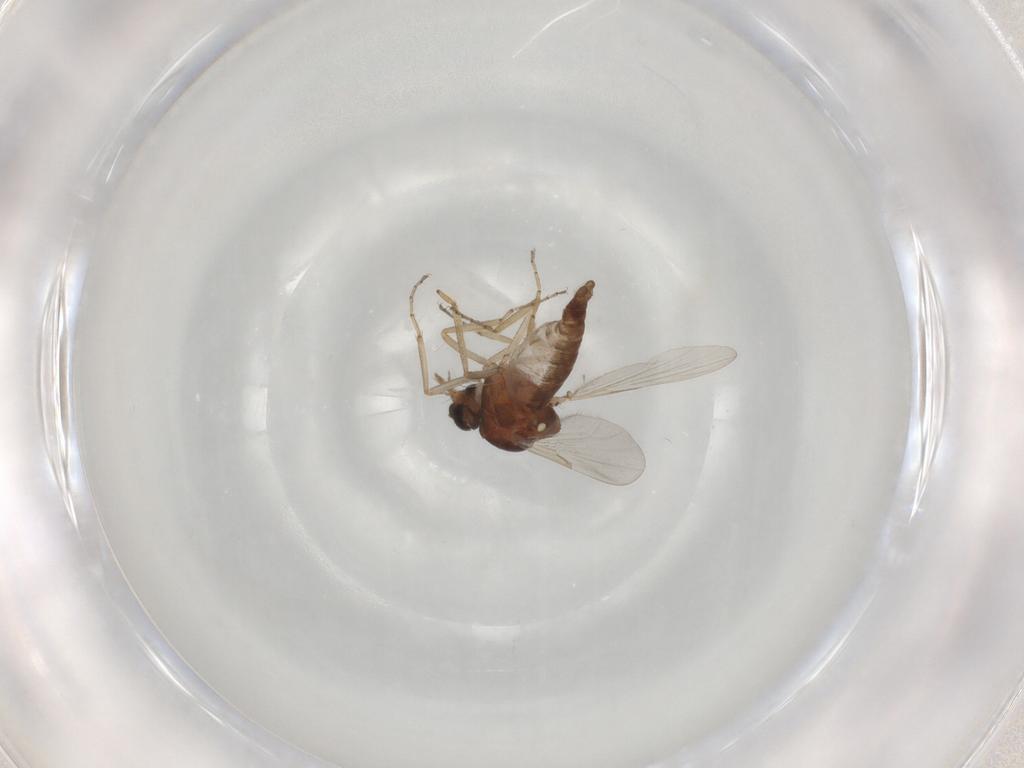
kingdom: Animalia
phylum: Arthropoda
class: Insecta
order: Diptera
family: Ceratopogonidae
